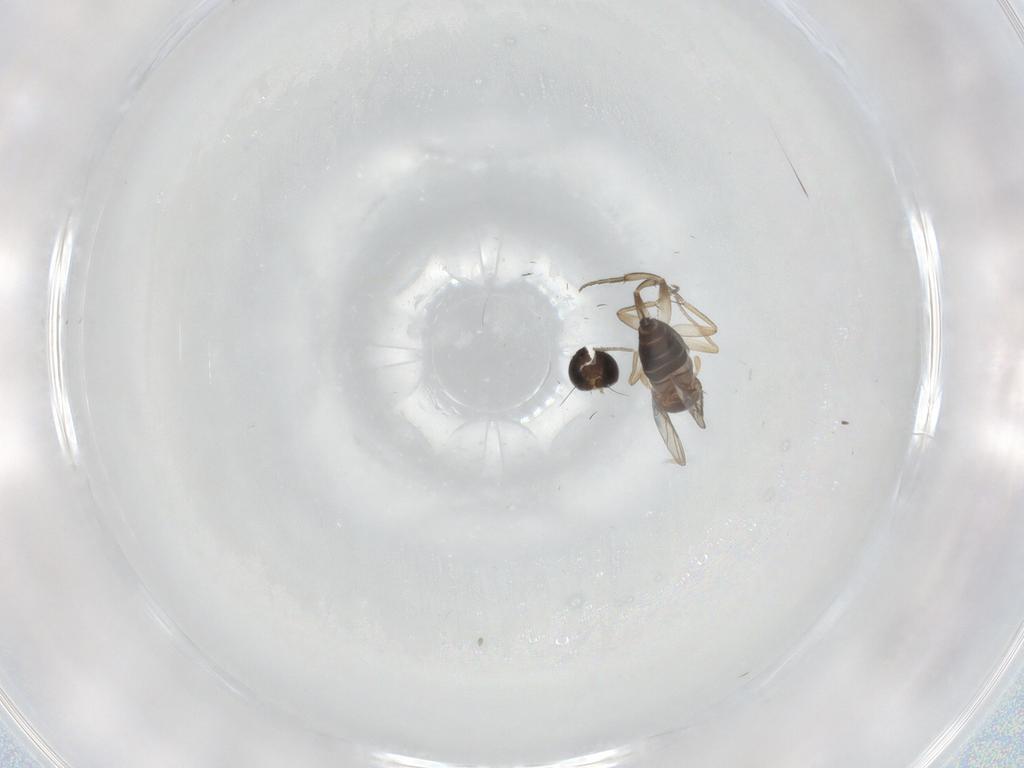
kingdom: Animalia
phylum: Arthropoda
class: Insecta
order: Diptera
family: Phoridae
